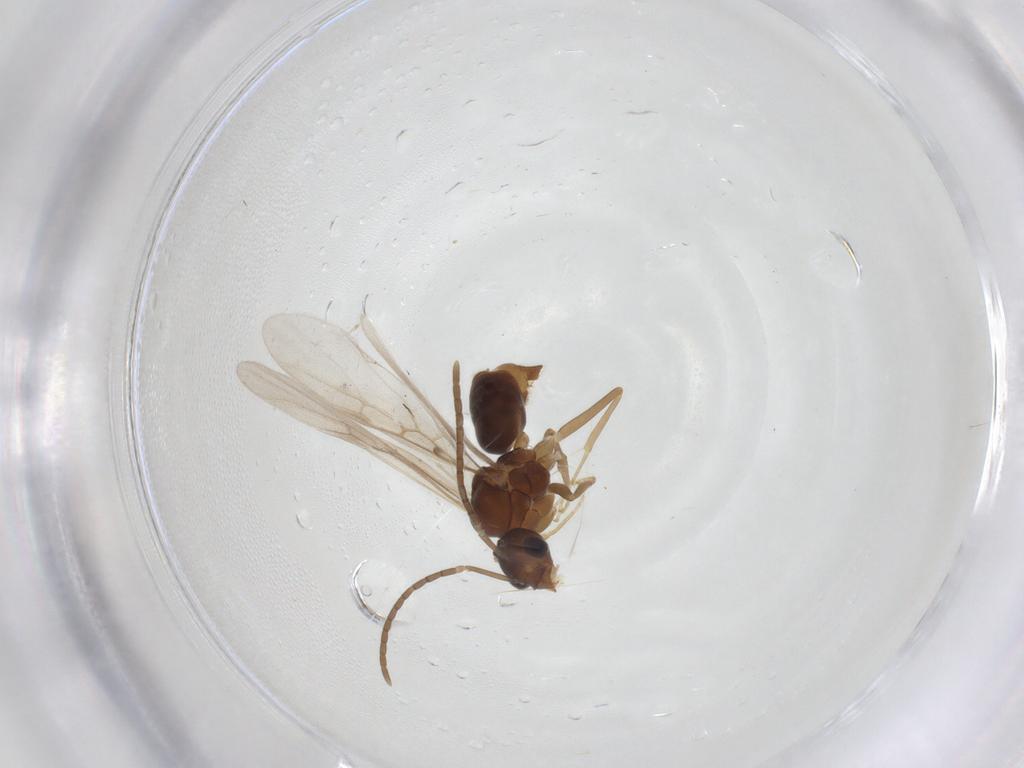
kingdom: Animalia
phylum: Arthropoda
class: Insecta
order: Hymenoptera
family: Formicidae
